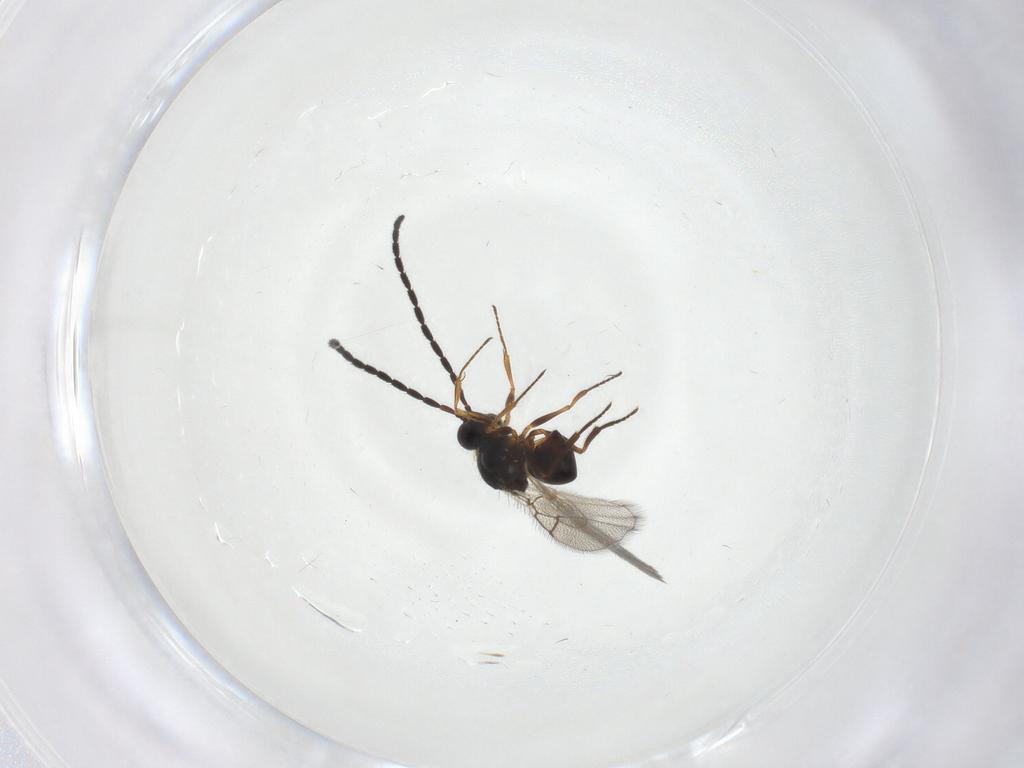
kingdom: Animalia
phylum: Arthropoda
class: Insecta
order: Hymenoptera
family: Figitidae
